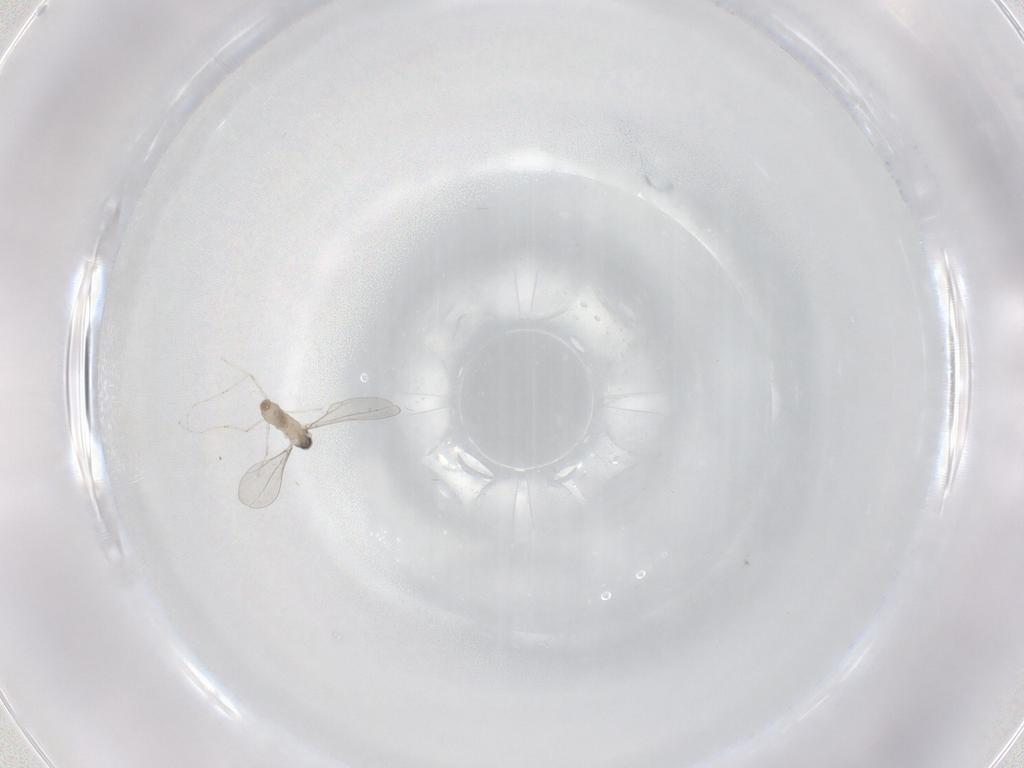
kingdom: Animalia
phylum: Arthropoda
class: Insecta
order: Diptera
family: Cecidomyiidae
